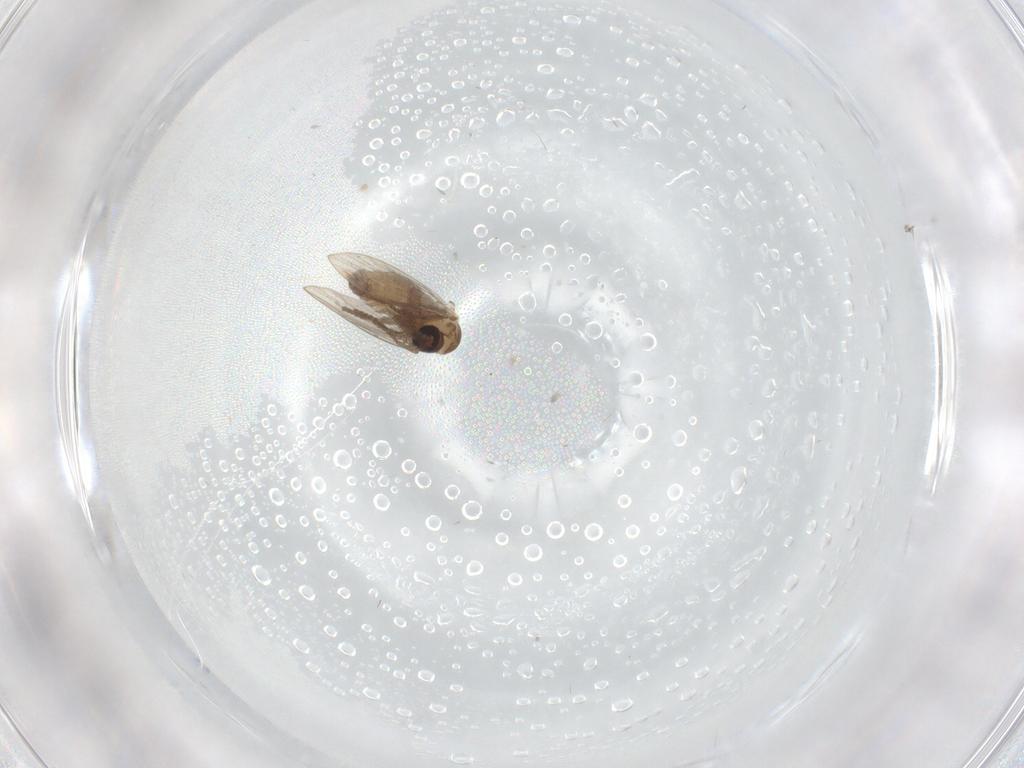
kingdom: Animalia
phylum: Arthropoda
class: Insecta
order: Diptera
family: Psychodidae
